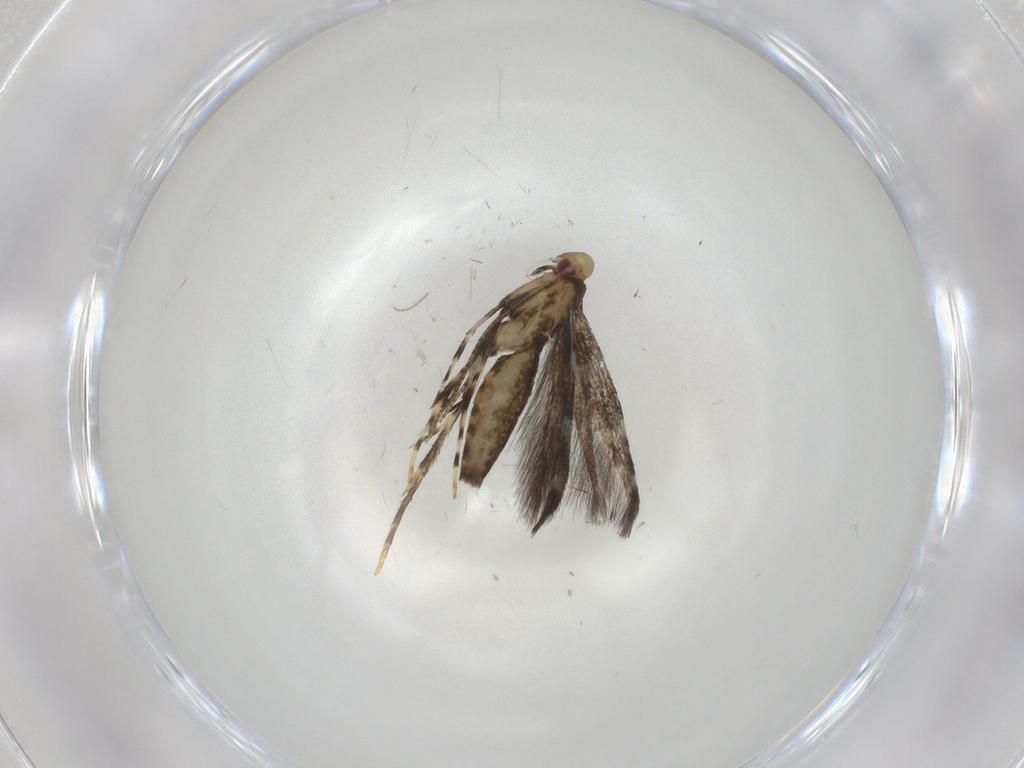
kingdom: Animalia
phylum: Arthropoda
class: Insecta
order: Lepidoptera
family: Gracillariidae
